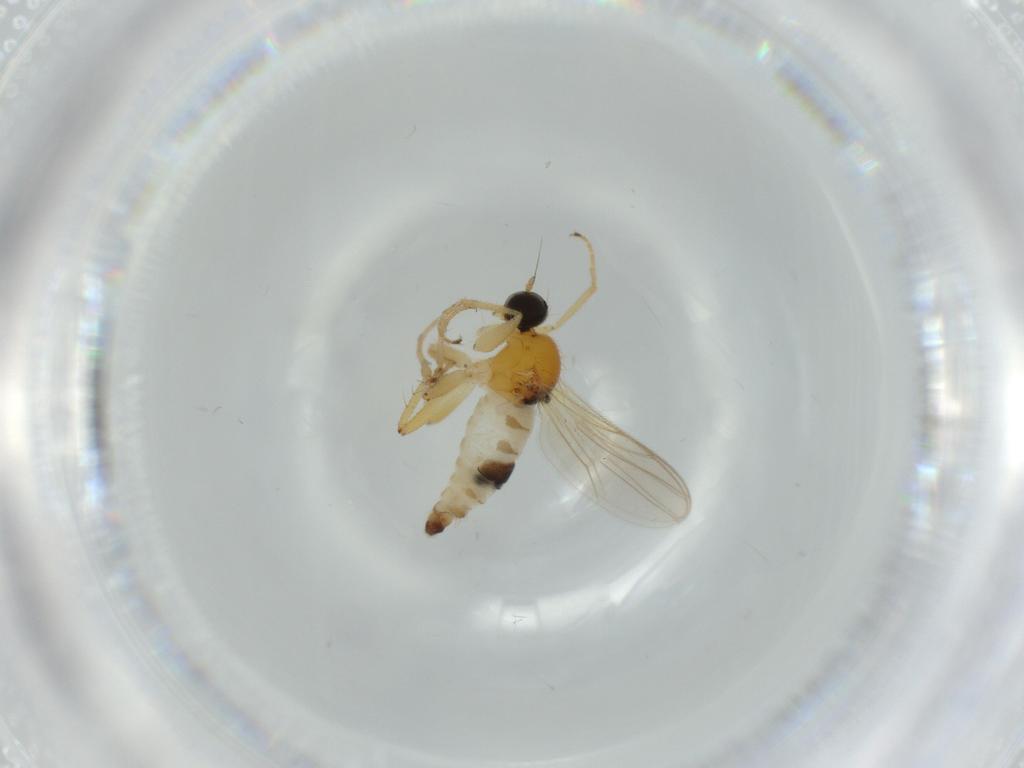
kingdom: Animalia
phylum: Arthropoda
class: Insecta
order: Diptera
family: Hybotidae
